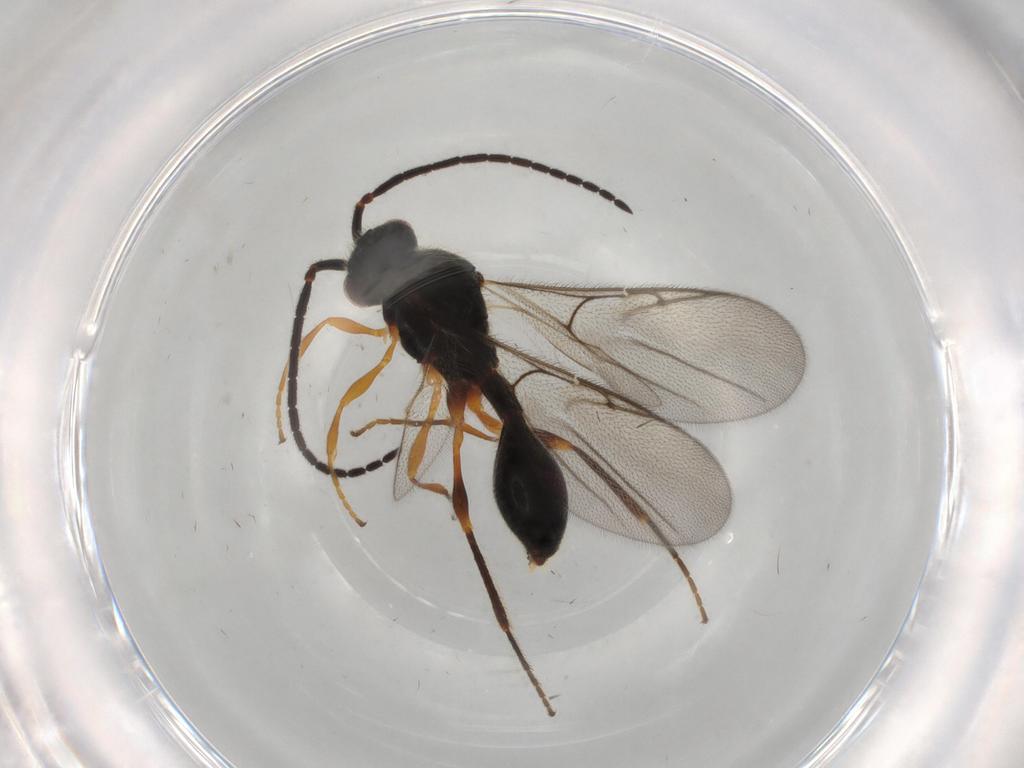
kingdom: Animalia
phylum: Arthropoda
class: Insecta
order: Hymenoptera
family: Diapriidae
